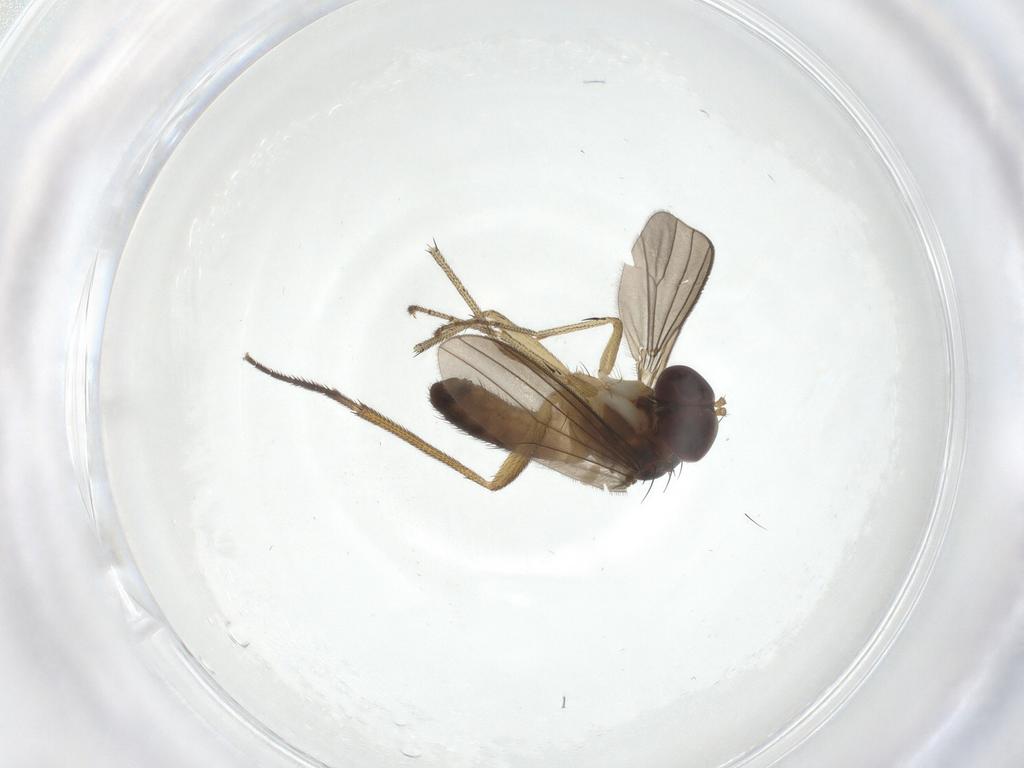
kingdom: Animalia
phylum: Arthropoda
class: Insecta
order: Diptera
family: Dolichopodidae
